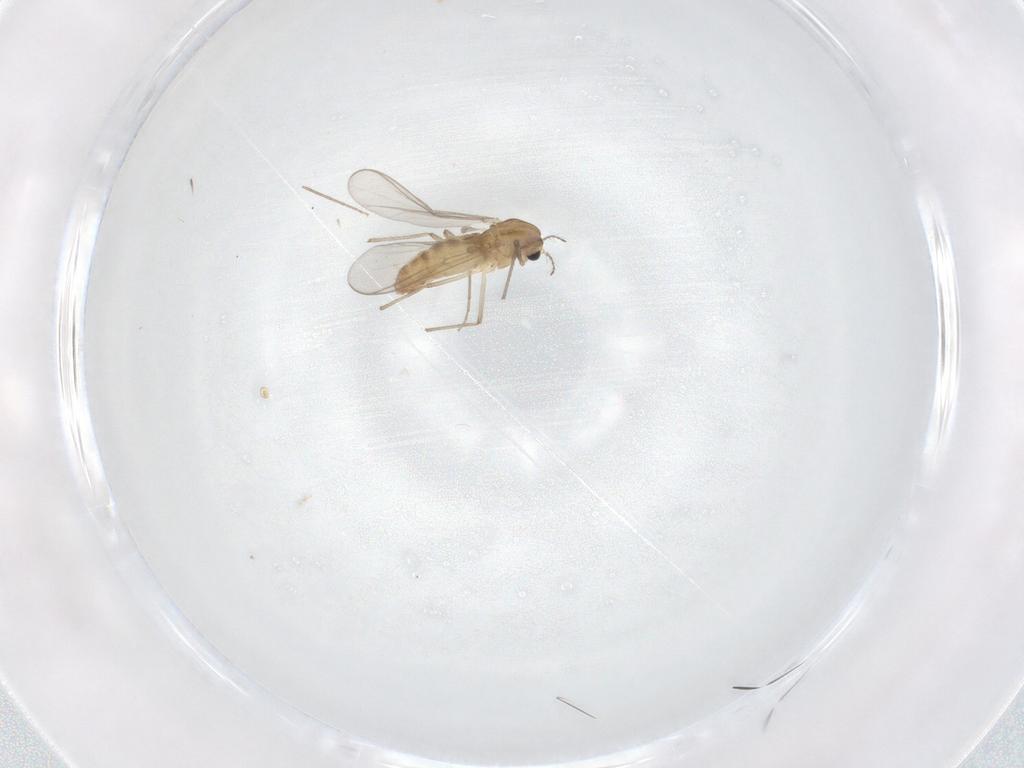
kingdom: Animalia
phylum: Arthropoda
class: Insecta
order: Diptera
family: Chironomidae
